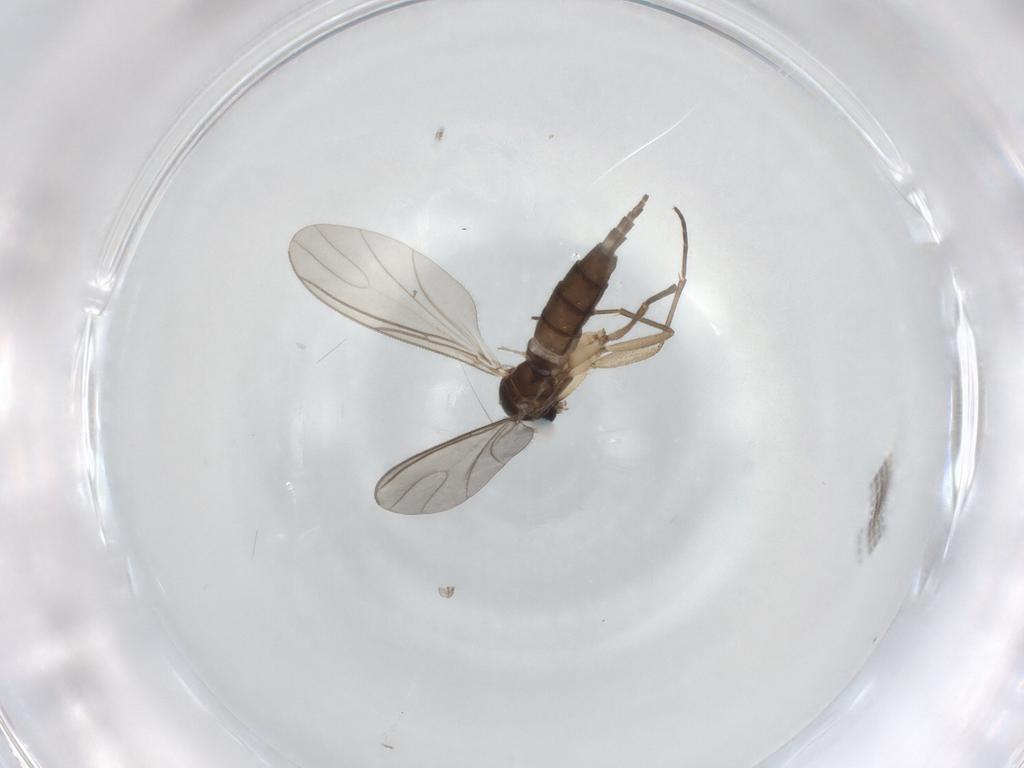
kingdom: Animalia
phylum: Arthropoda
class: Insecta
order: Diptera
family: Sciaridae
